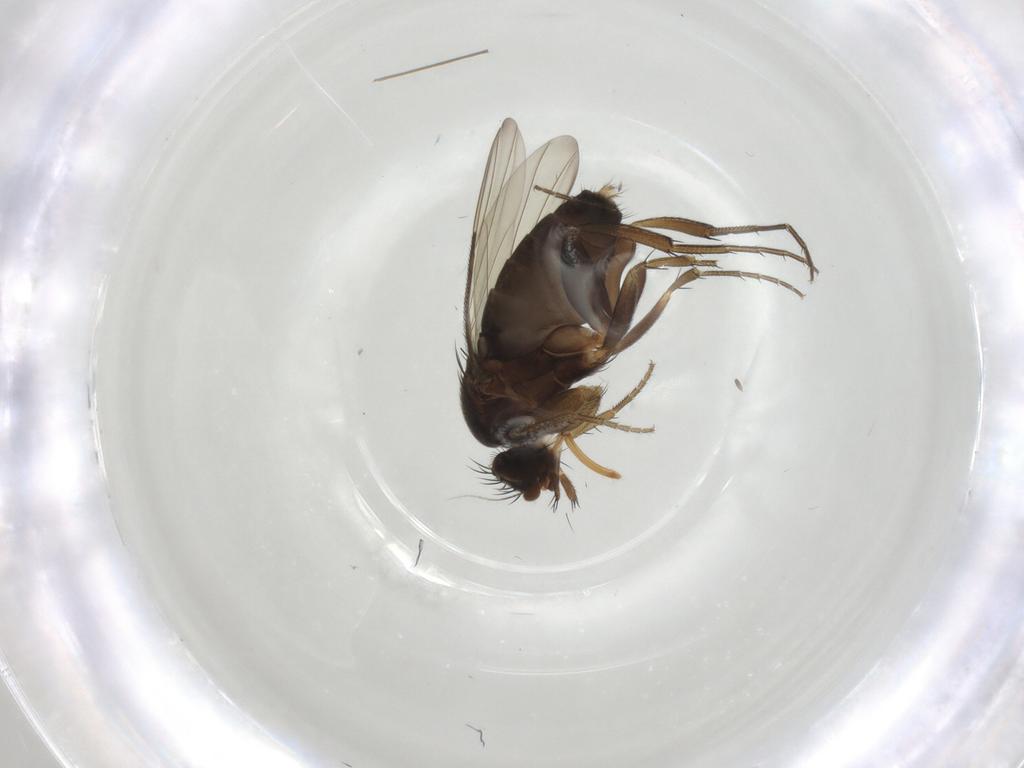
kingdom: Animalia
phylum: Arthropoda
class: Insecta
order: Diptera
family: Phoridae
